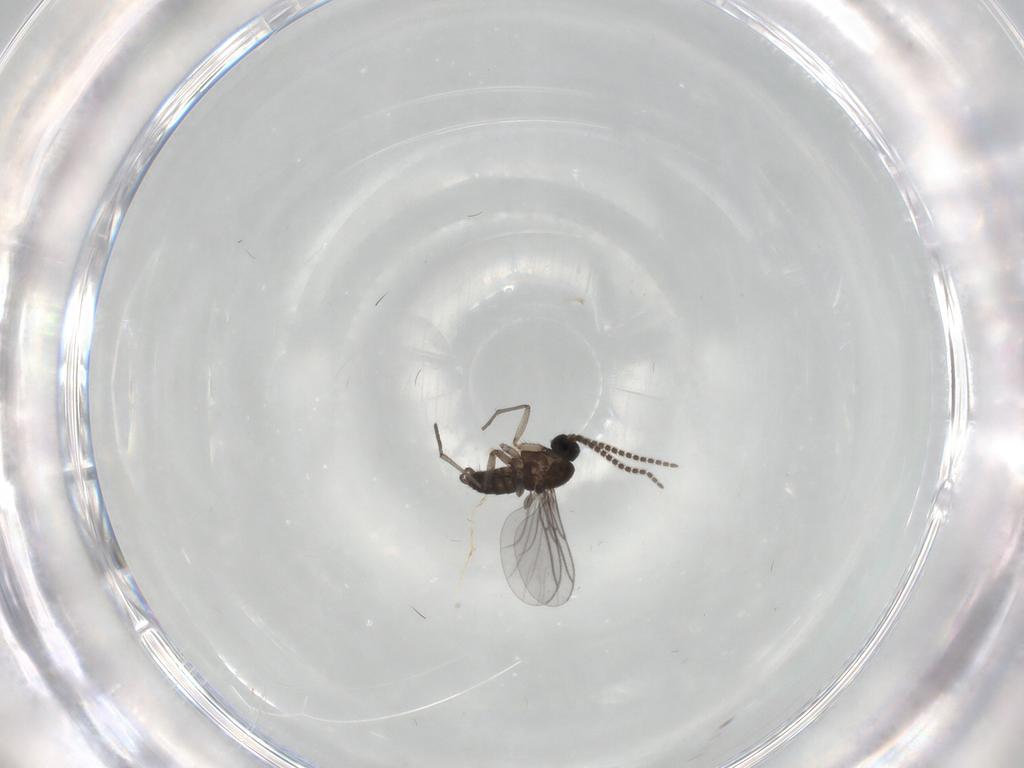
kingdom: Animalia
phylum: Arthropoda
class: Insecta
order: Diptera
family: Sciaridae
